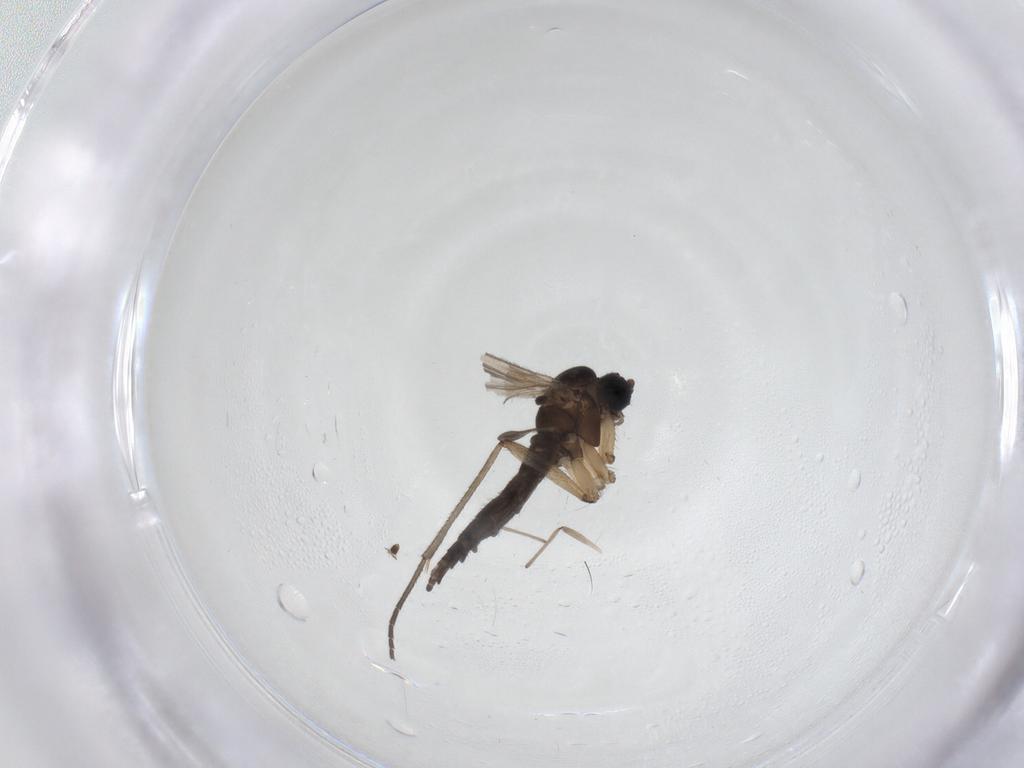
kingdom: Animalia
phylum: Arthropoda
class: Insecta
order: Diptera
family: Sciaridae
